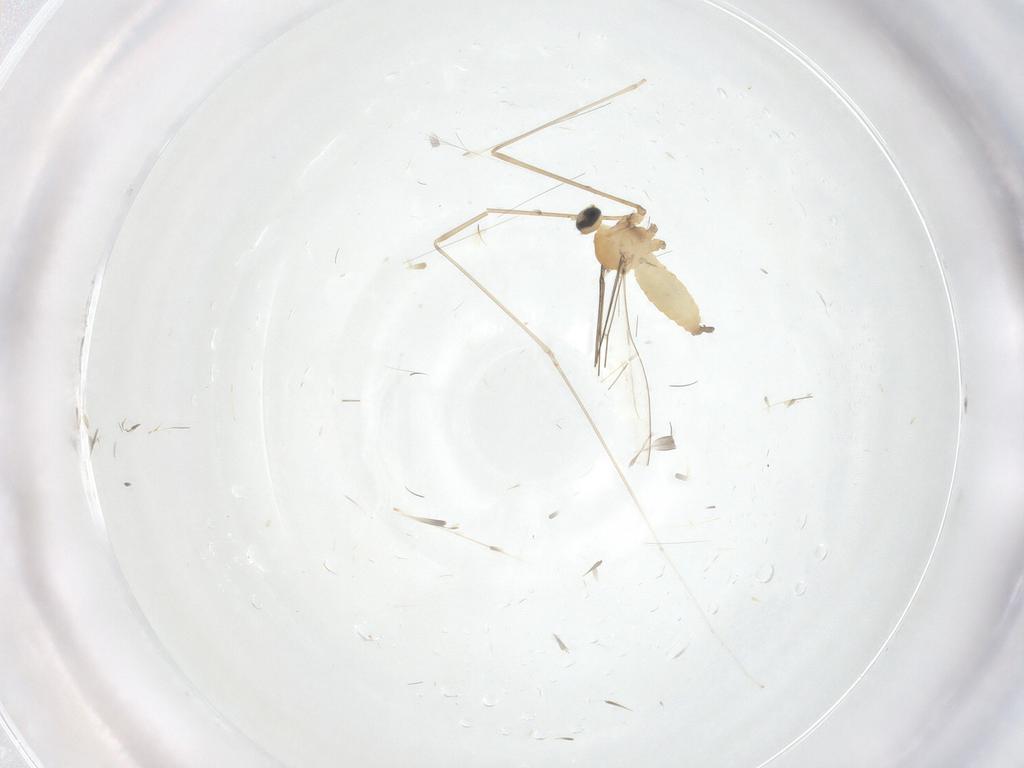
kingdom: Animalia
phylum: Arthropoda
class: Insecta
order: Diptera
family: Cecidomyiidae
